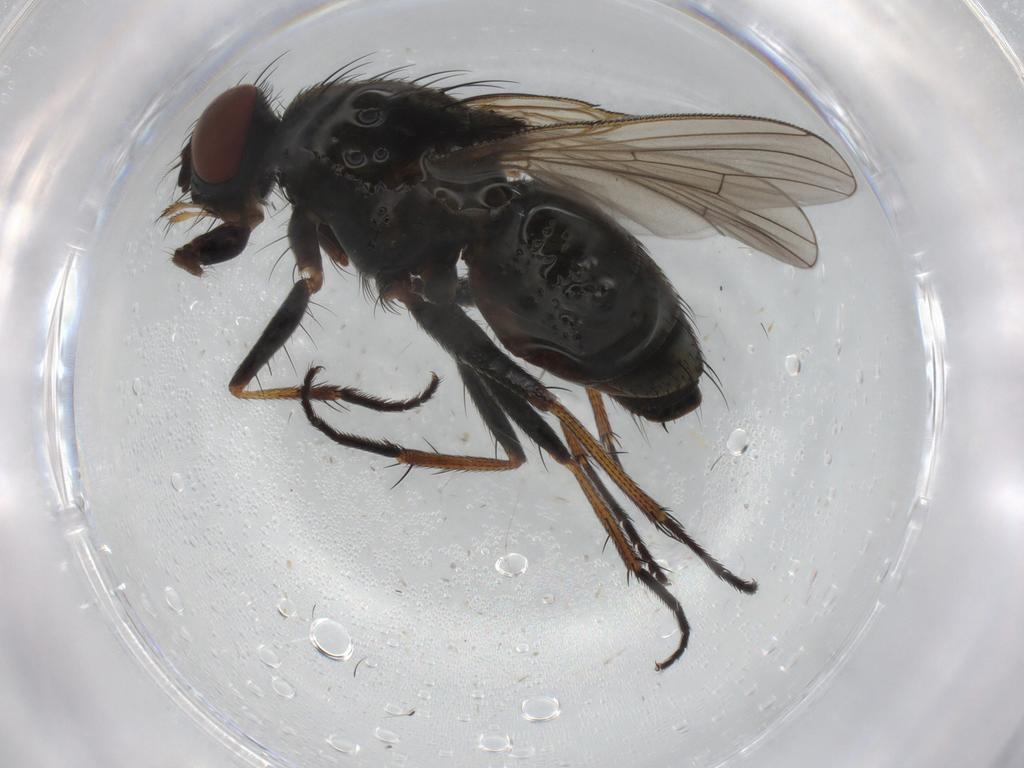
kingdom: Animalia
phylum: Arthropoda
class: Insecta
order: Diptera
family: Muscidae
